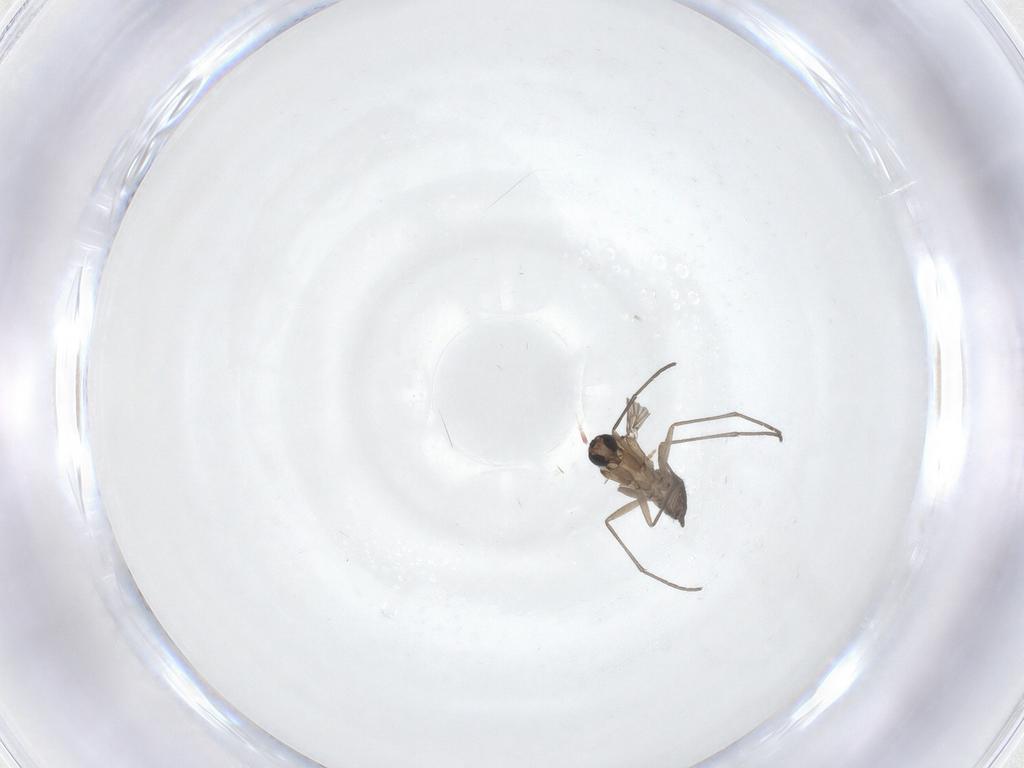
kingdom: Animalia
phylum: Arthropoda
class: Insecta
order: Diptera
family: Sciaridae
